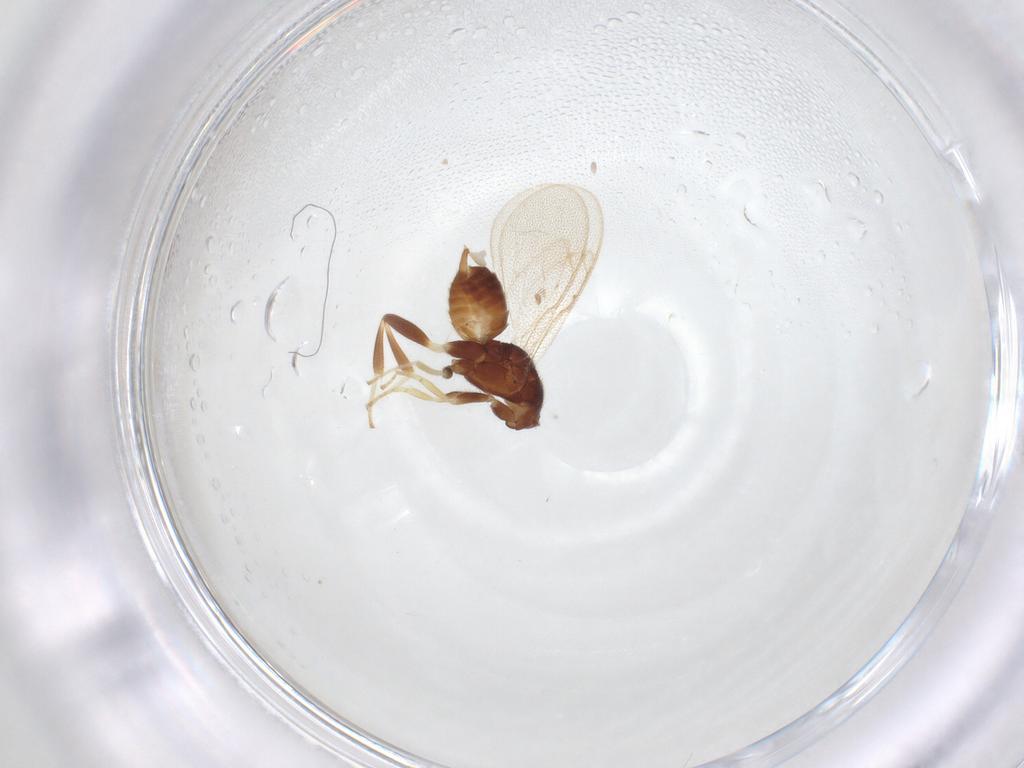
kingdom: Animalia
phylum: Arthropoda
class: Insecta
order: Hymenoptera
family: Eupelmidae
